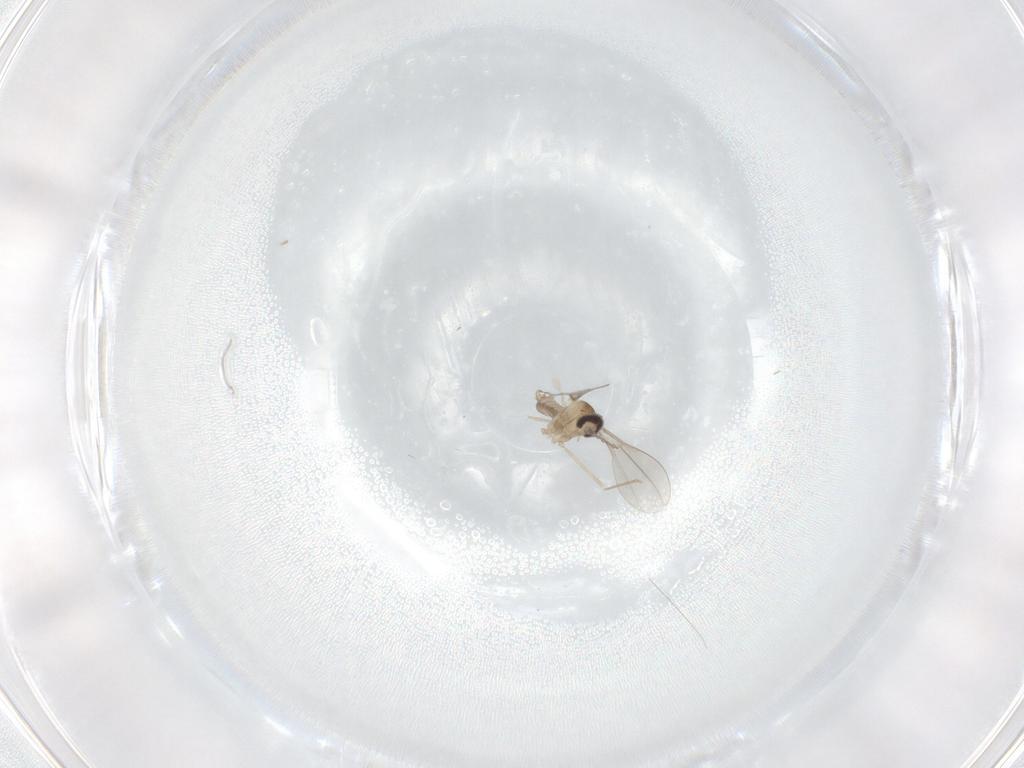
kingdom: Animalia
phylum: Arthropoda
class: Insecta
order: Diptera
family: Cecidomyiidae
